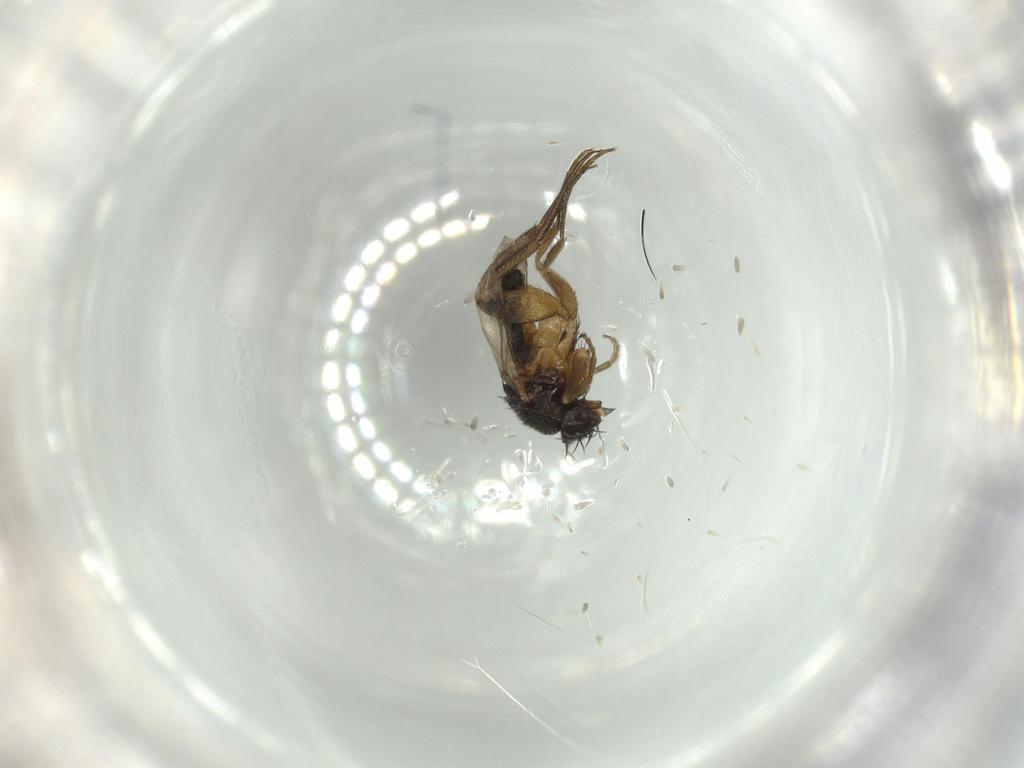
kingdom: Animalia
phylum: Arthropoda
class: Insecta
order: Diptera
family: Phoridae
